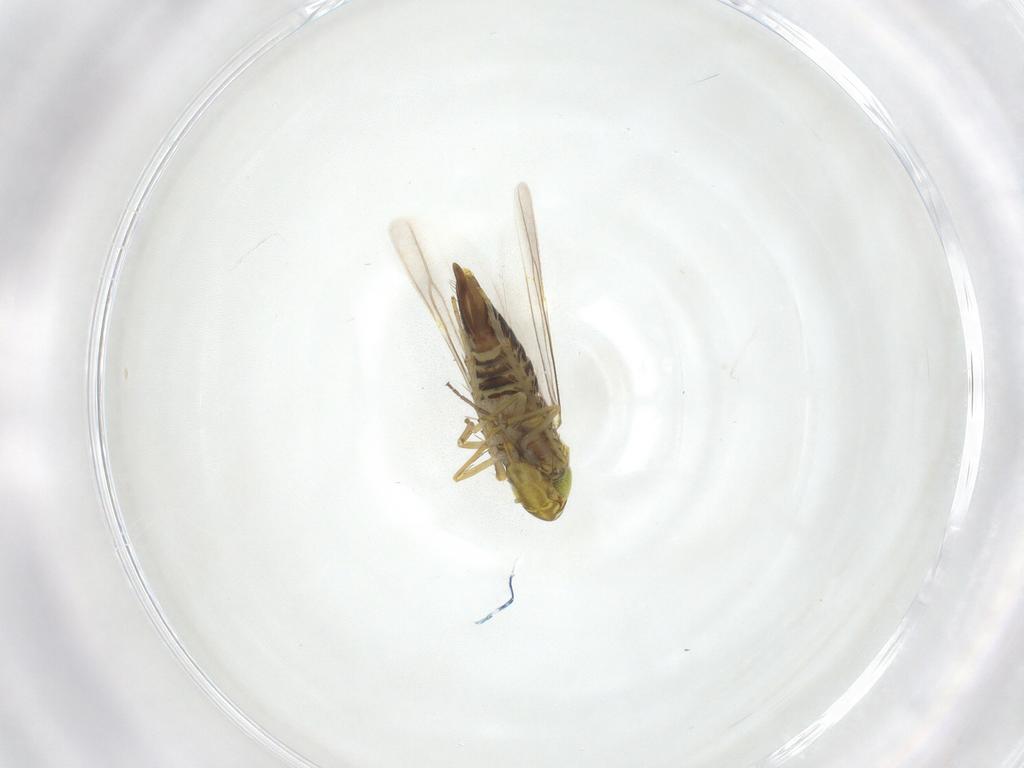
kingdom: Animalia
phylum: Arthropoda
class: Insecta
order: Hemiptera
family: Cicadellidae
